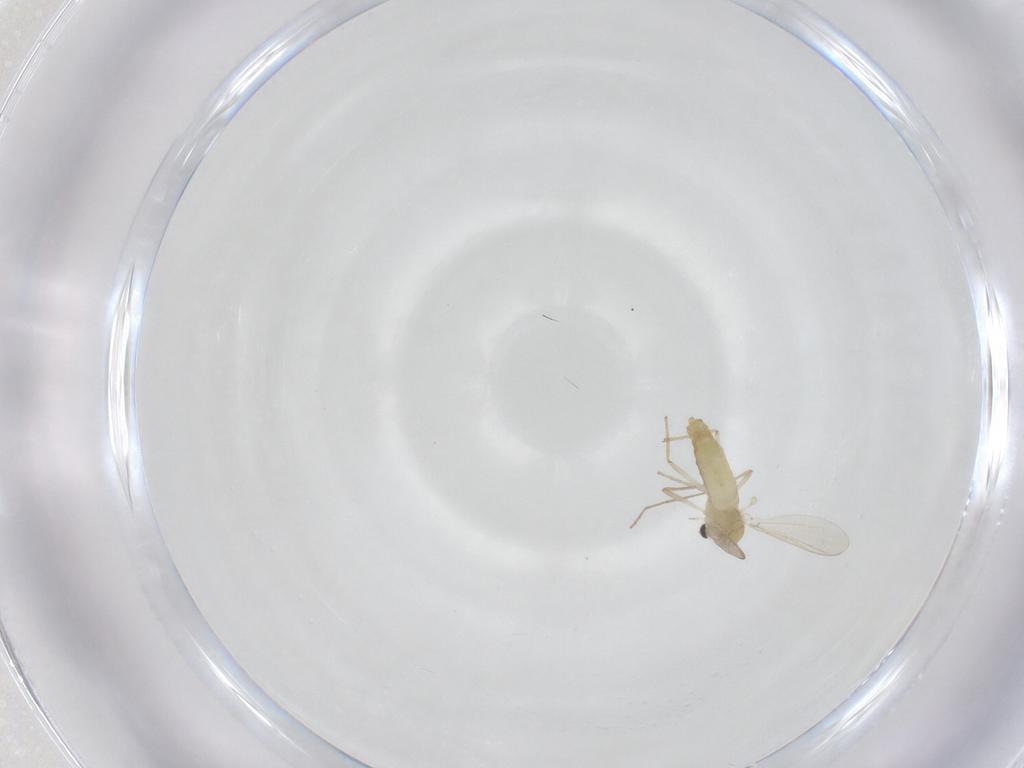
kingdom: Animalia
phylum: Arthropoda
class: Insecta
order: Diptera
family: Chironomidae
